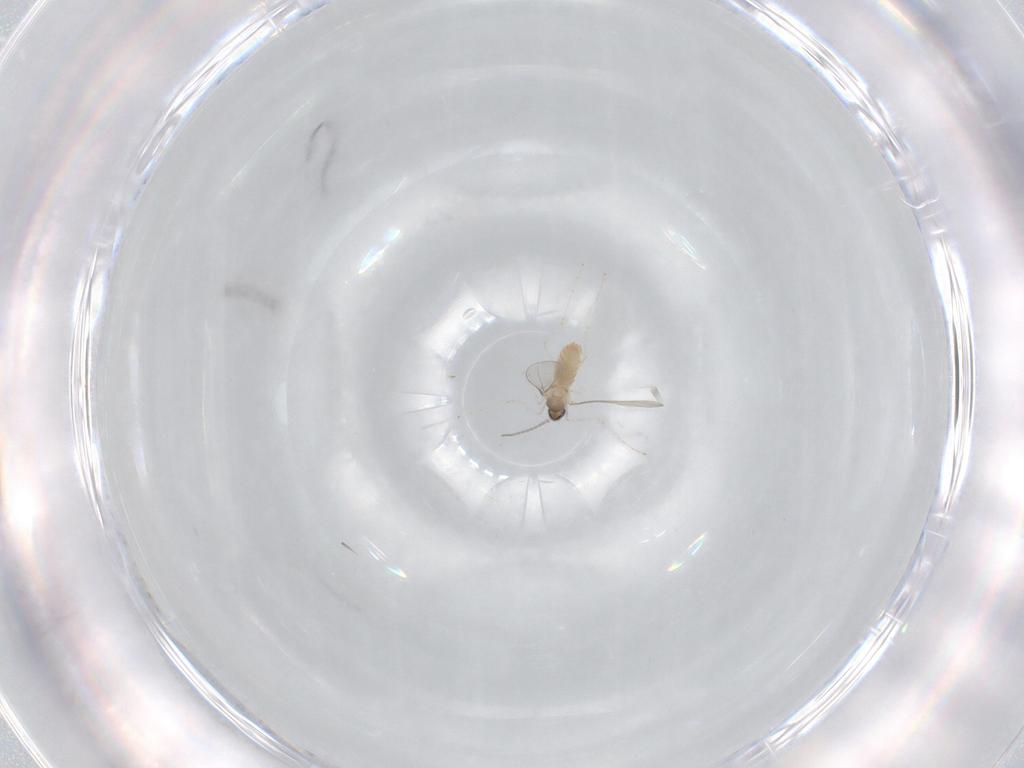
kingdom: Animalia
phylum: Arthropoda
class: Insecta
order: Diptera
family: Cecidomyiidae
